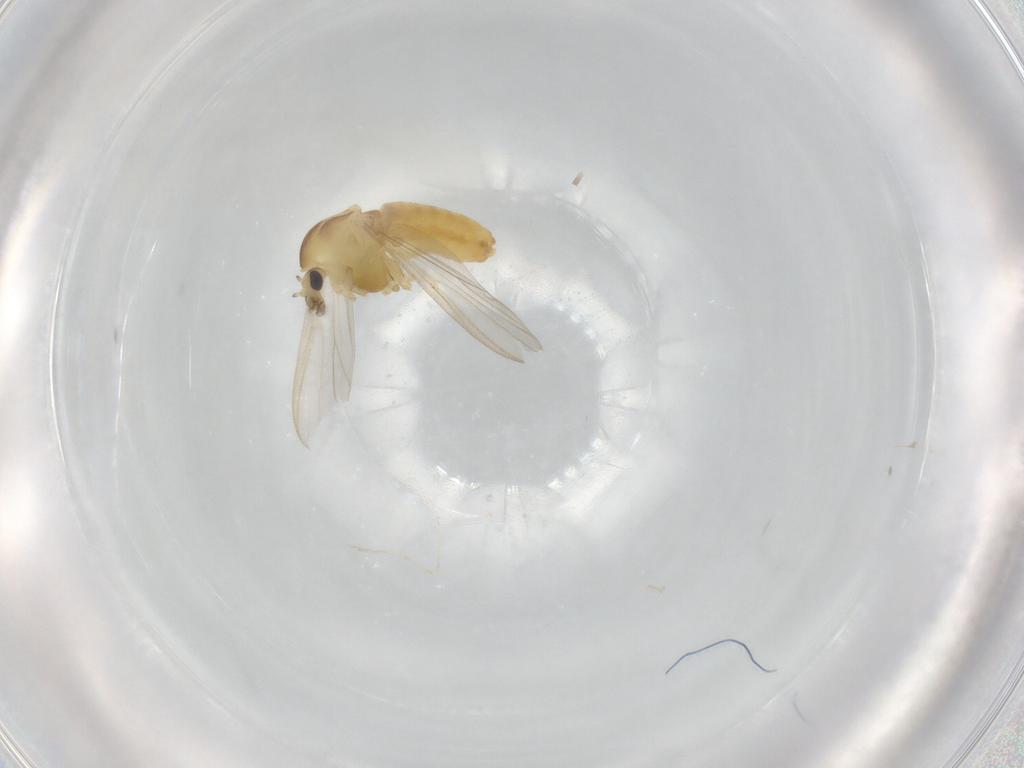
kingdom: Animalia
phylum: Arthropoda
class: Insecta
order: Diptera
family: Chironomidae
